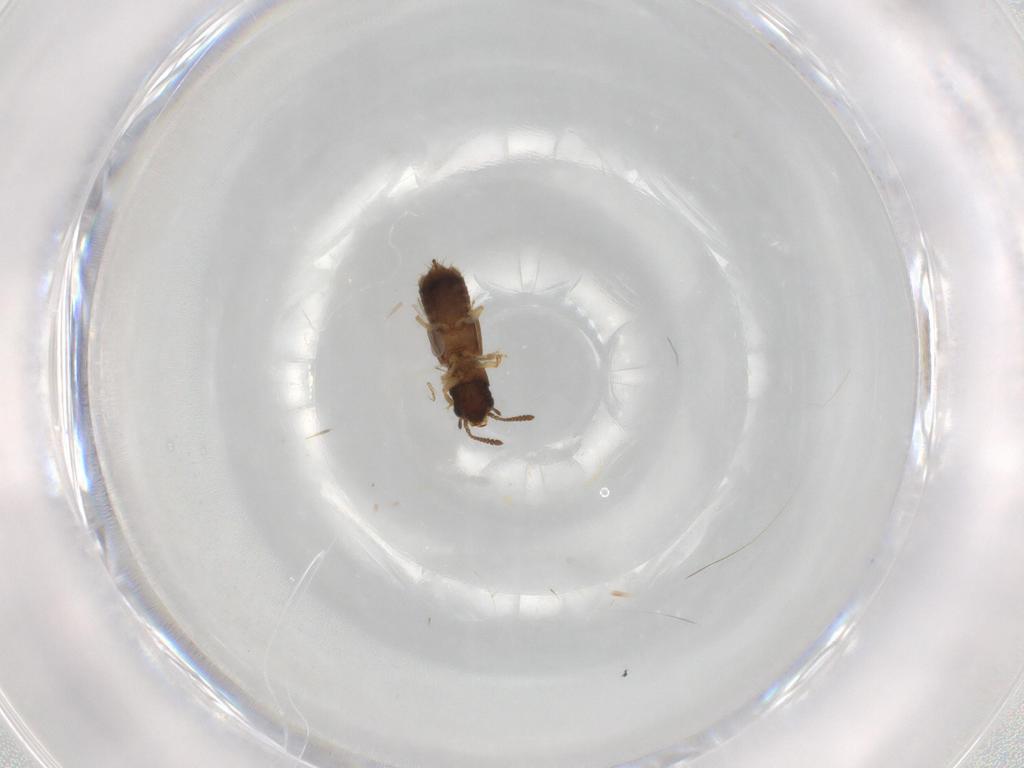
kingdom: Animalia
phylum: Arthropoda
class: Insecta
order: Coleoptera
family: Staphylinidae
